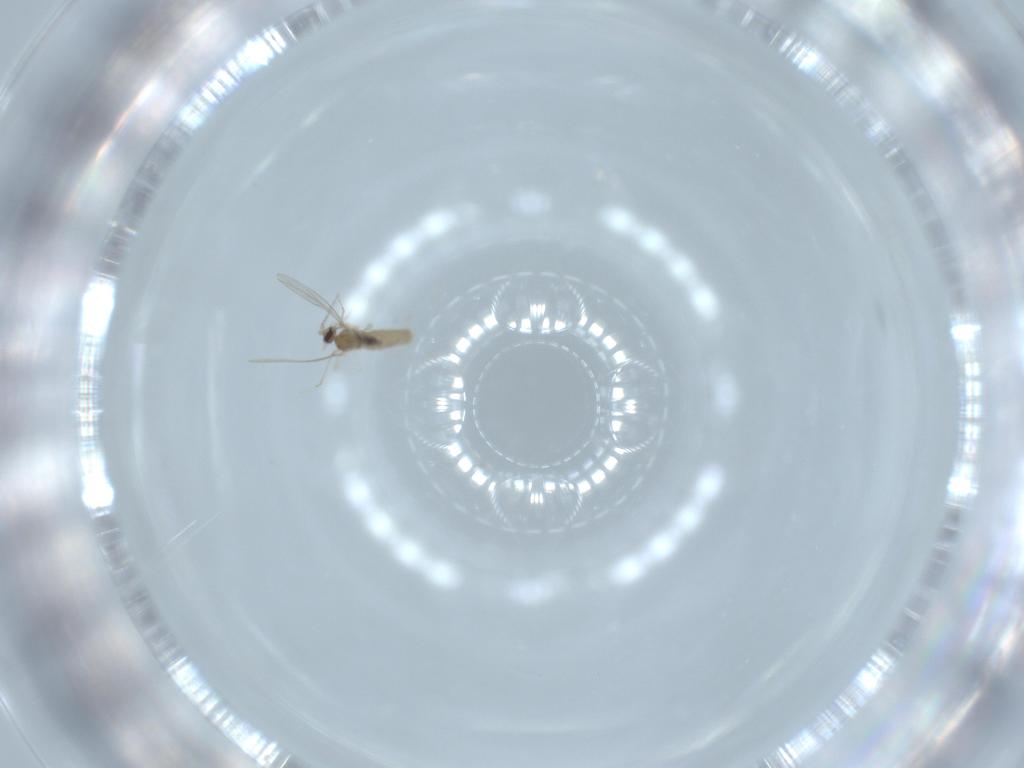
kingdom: Animalia
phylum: Arthropoda
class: Insecta
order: Diptera
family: Cecidomyiidae
